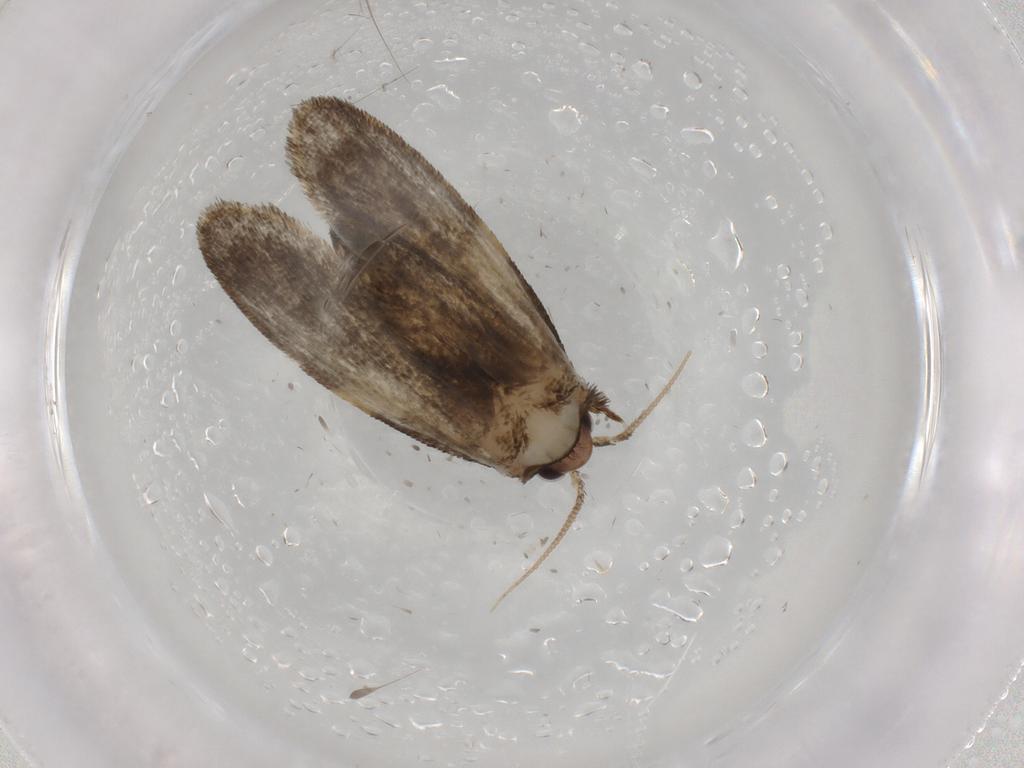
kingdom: Animalia
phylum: Arthropoda
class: Insecta
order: Lepidoptera
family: Psychidae
